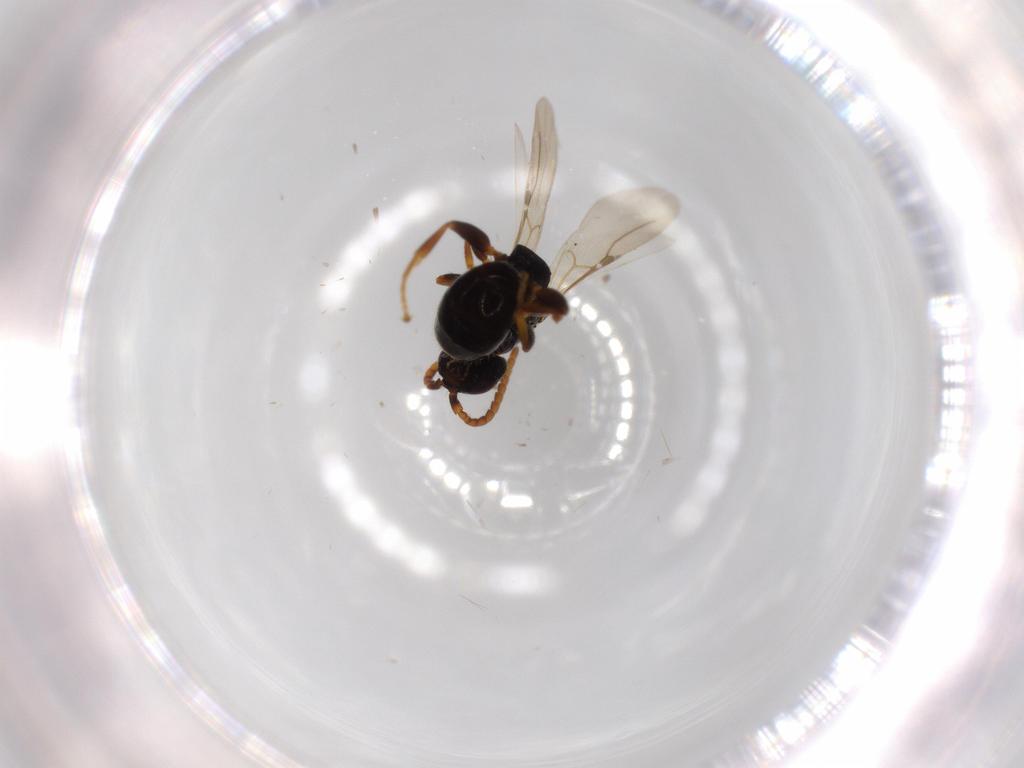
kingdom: Animalia
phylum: Arthropoda
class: Insecta
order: Hymenoptera
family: Bethylidae
